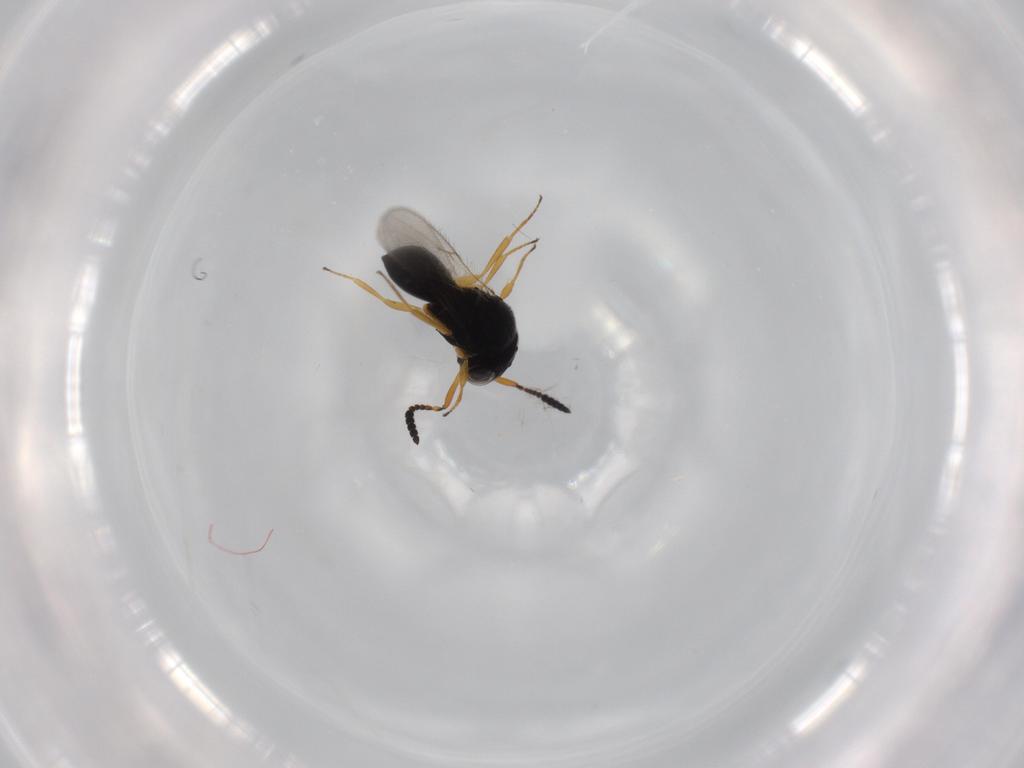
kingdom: Animalia
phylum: Arthropoda
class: Insecta
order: Hymenoptera
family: Scelionidae
